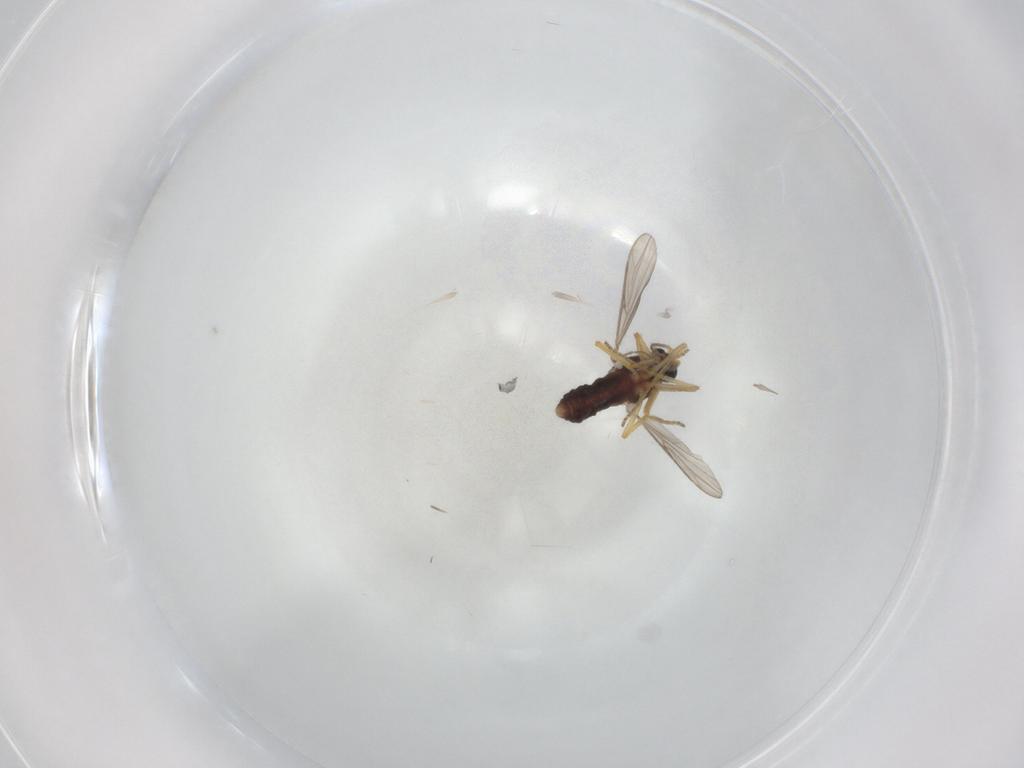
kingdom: Animalia
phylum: Arthropoda
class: Insecta
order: Diptera
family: Ceratopogonidae
